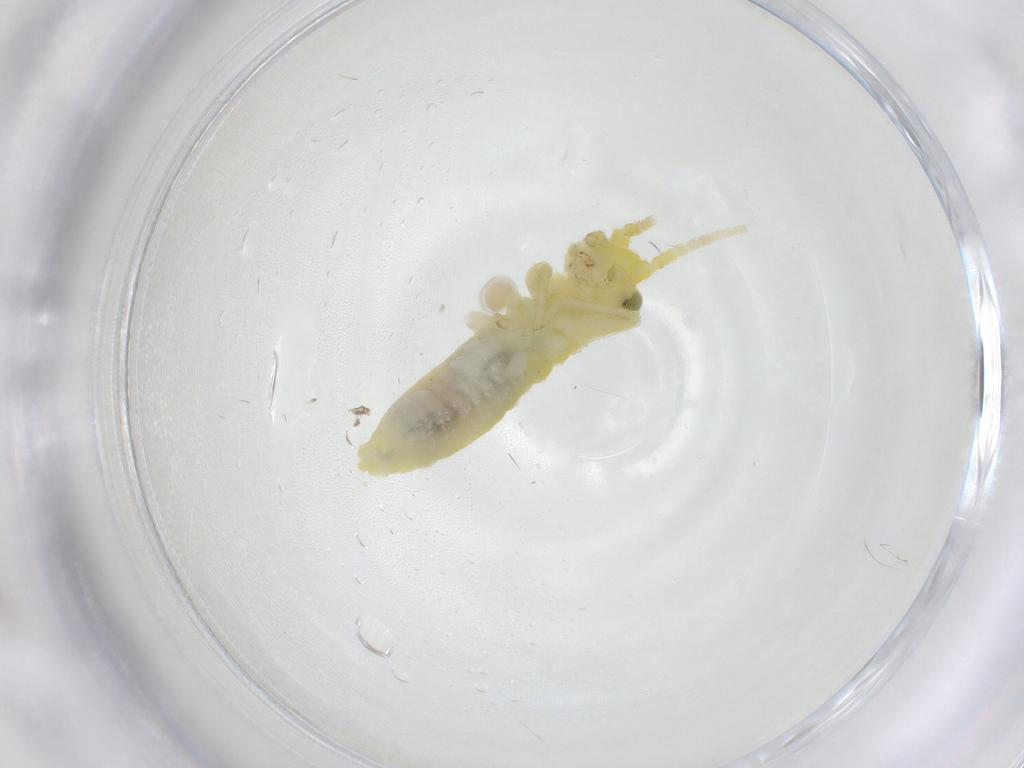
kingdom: Animalia
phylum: Arthropoda
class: Insecta
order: Orthoptera
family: Trigonidiidae
